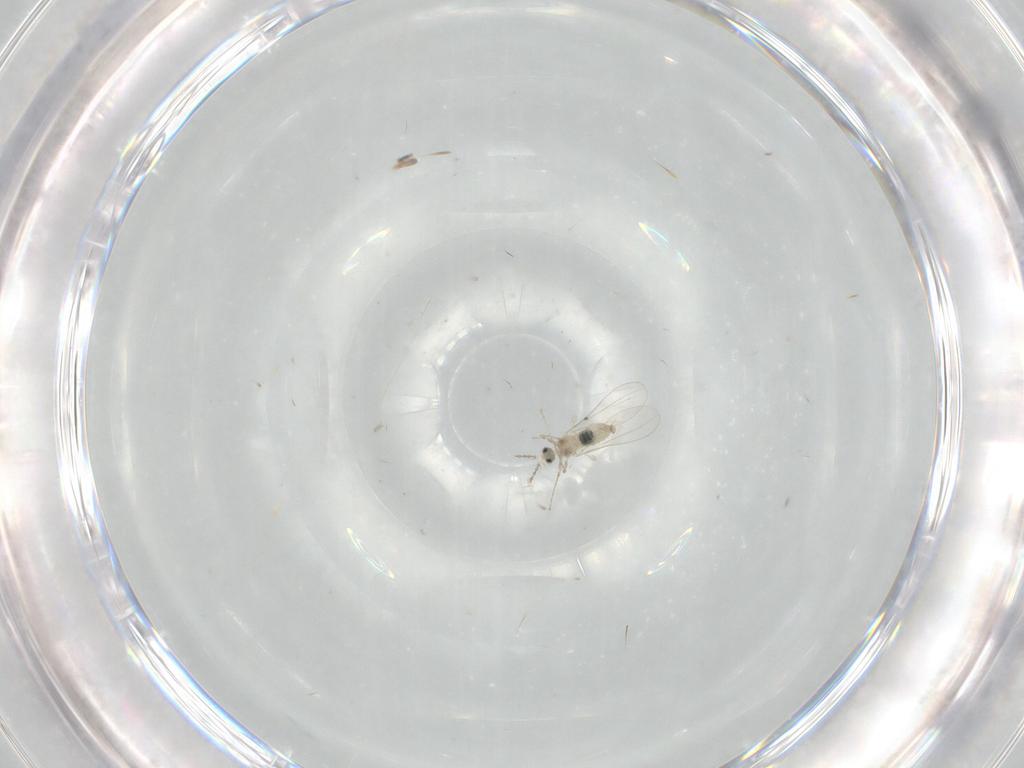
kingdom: Animalia
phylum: Arthropoda
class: Insecta
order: Diptera
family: Cecidomyiidae
